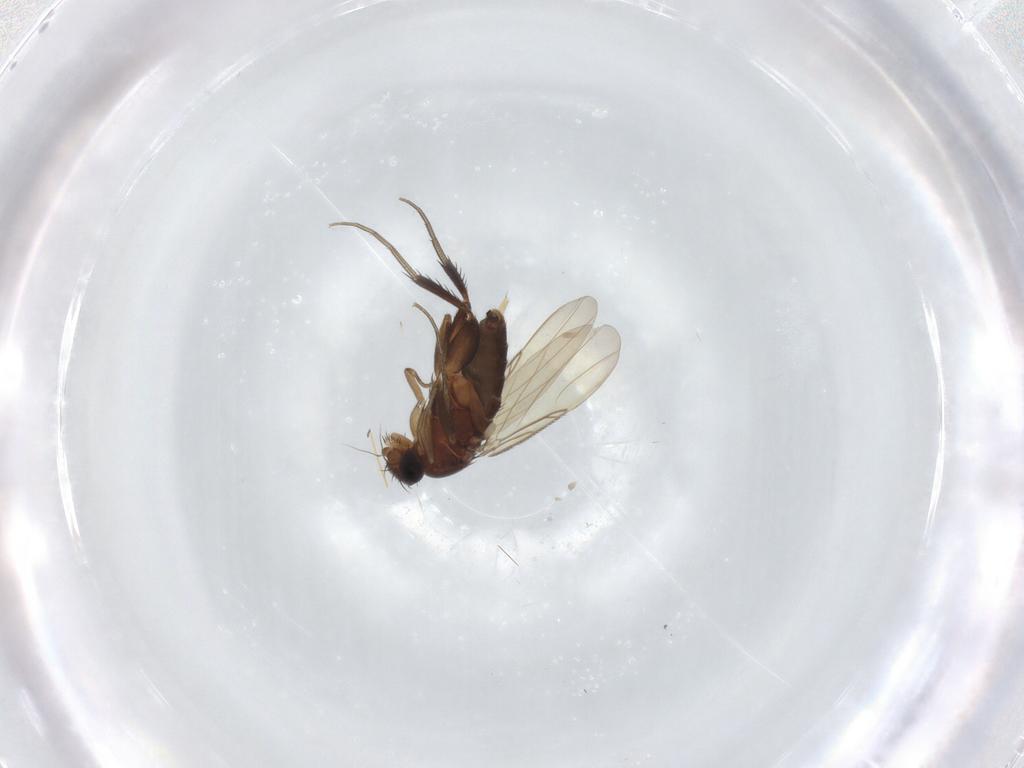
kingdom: Animalia
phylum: Arthropoda
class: Insecta
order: Diptera
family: Phoridae
